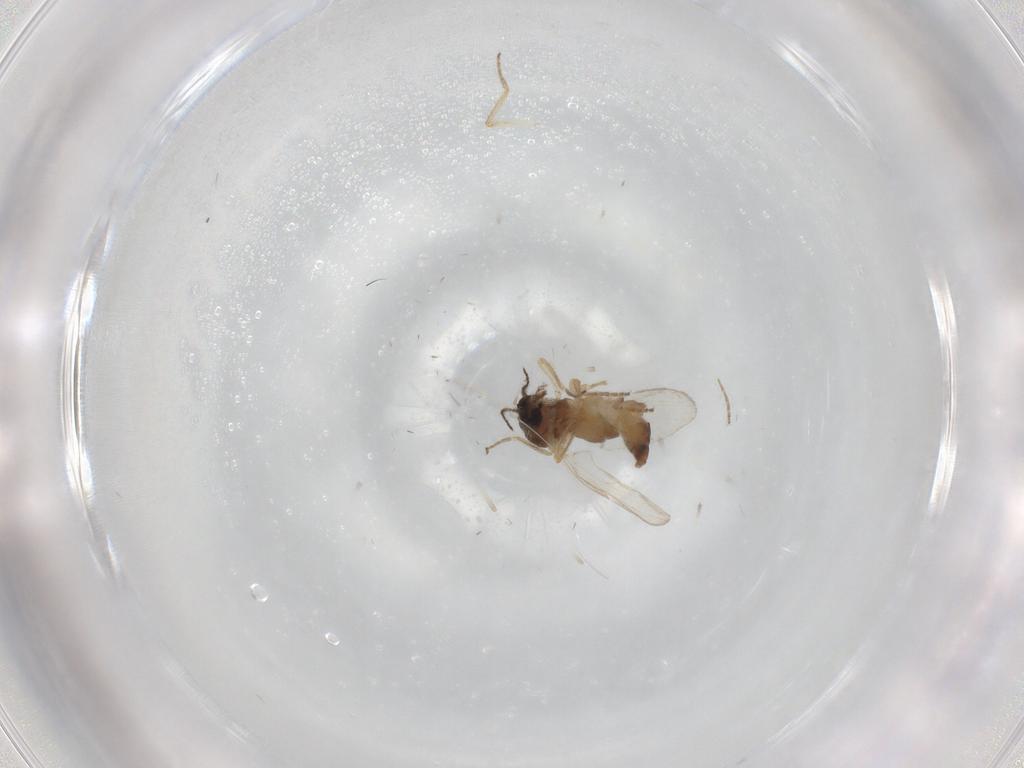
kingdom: Animalia
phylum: Arthropoda
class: Insecta
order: Diptera
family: Ceratopogonidae
